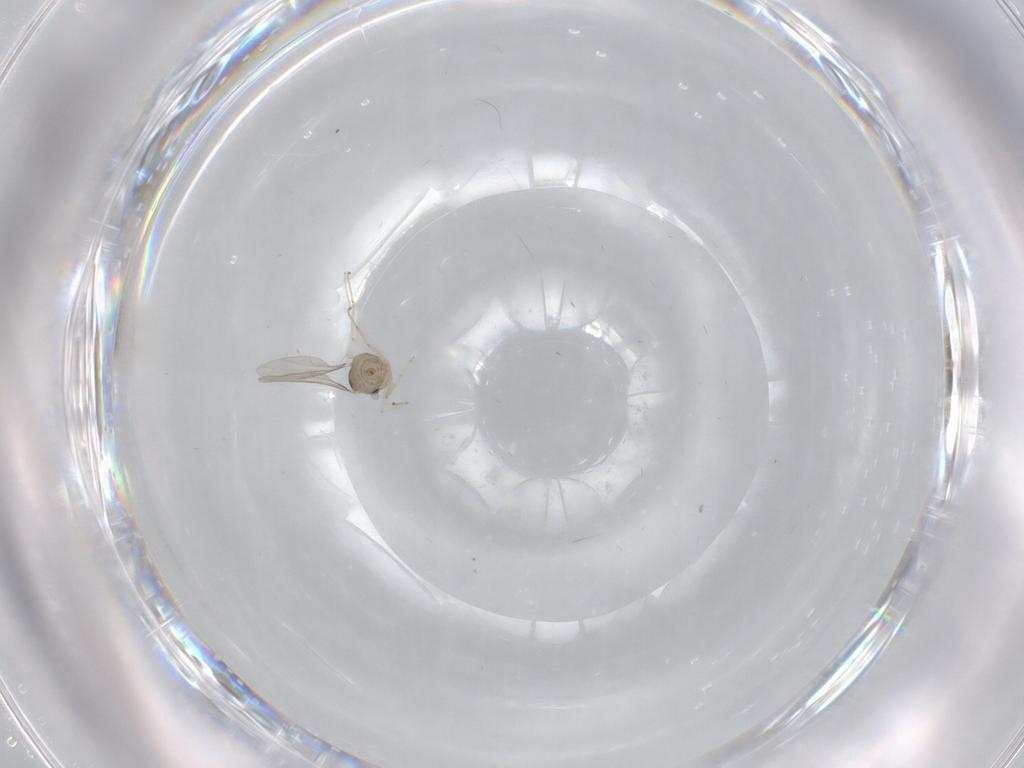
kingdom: Animalia
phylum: Arthropoda
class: Insecta
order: Diptera
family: Cecidomyiidae
